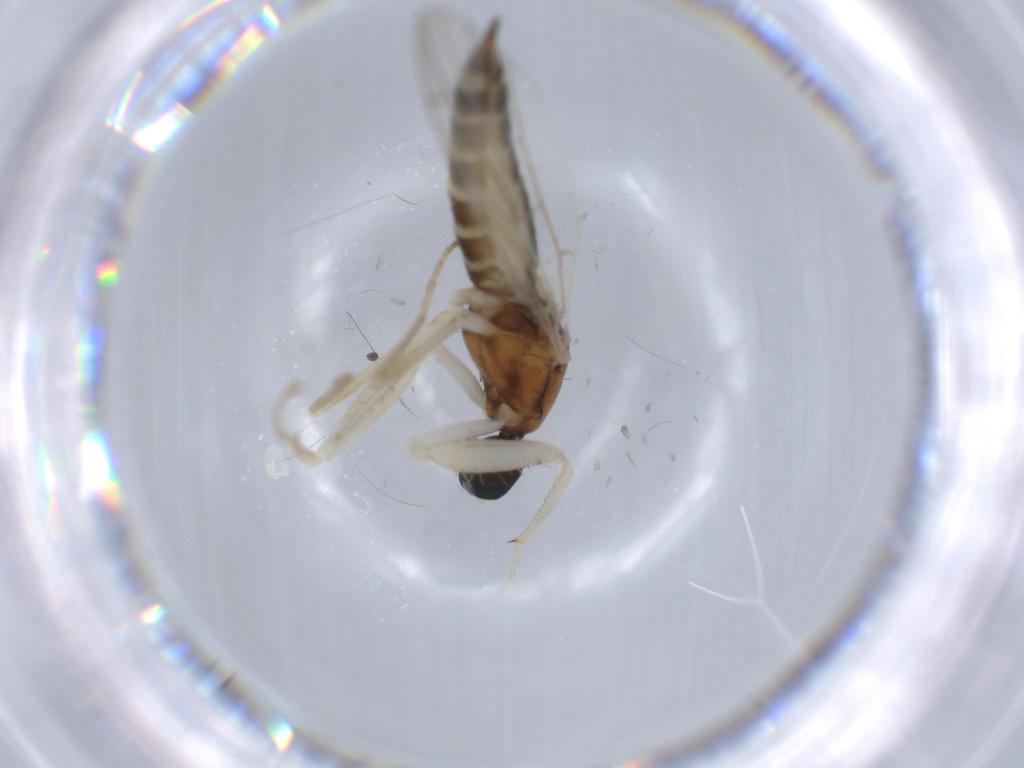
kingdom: Animalia
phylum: Arthropoda
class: Insecta
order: Diptera
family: Empididae
